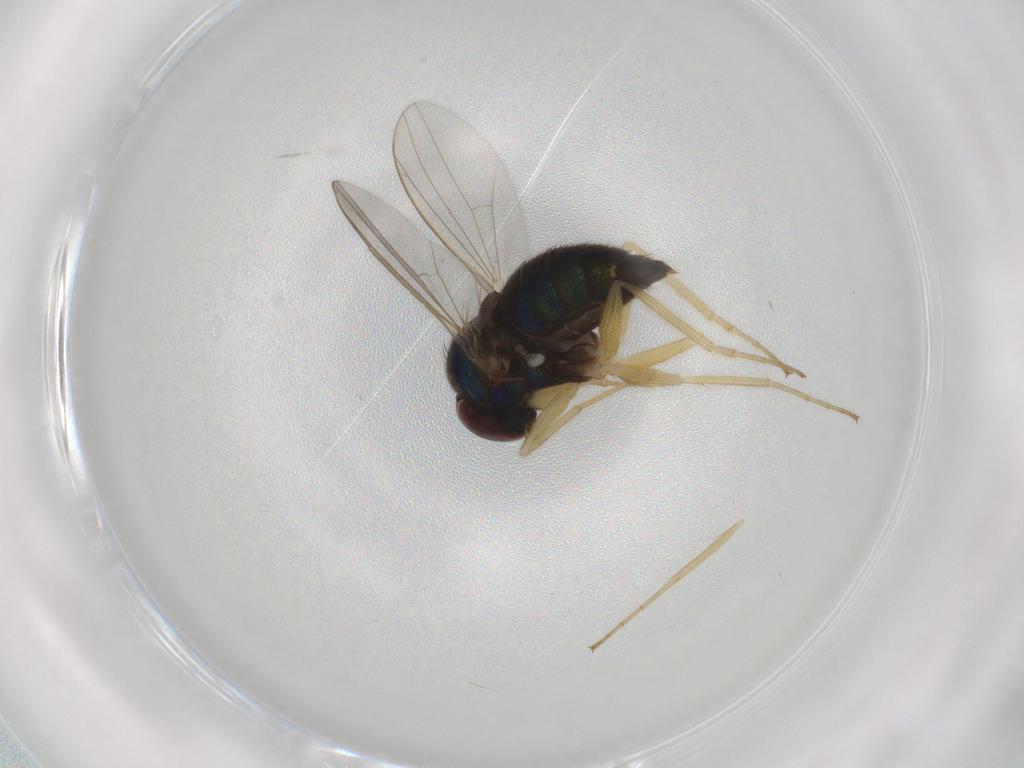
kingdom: Animalia
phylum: Arthropoda
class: Insecta
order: Diptera
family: Dolichopodidae
